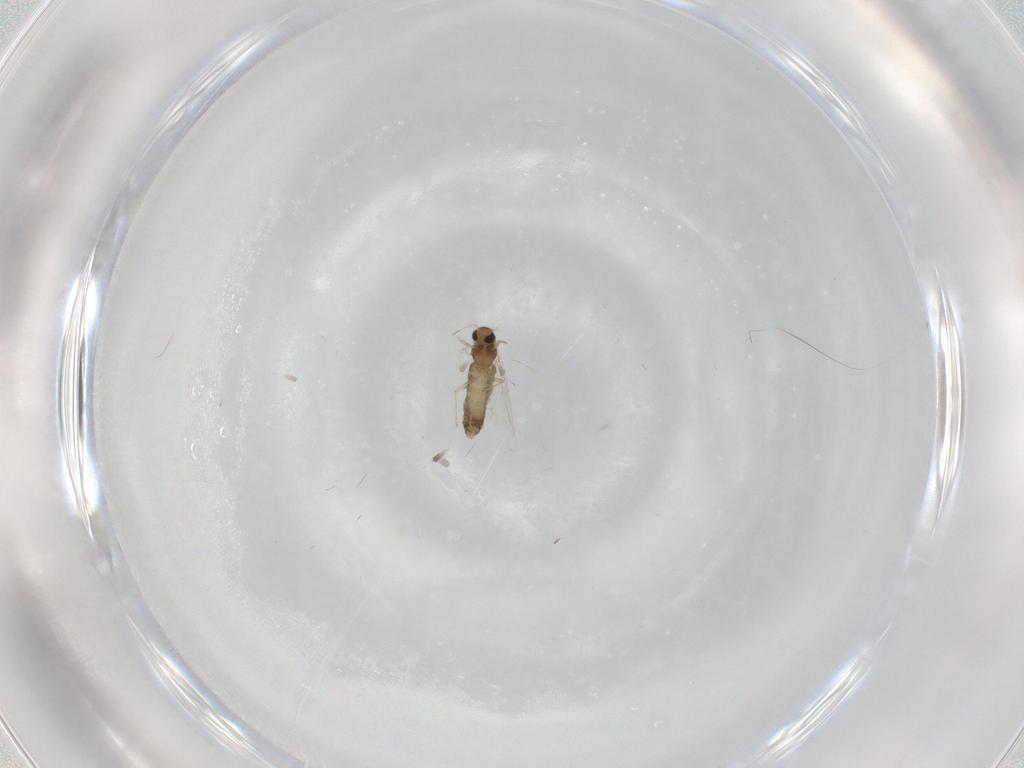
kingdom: Animalia
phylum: Arthropoda
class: Insecta
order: Diptera
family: Chironomidae
